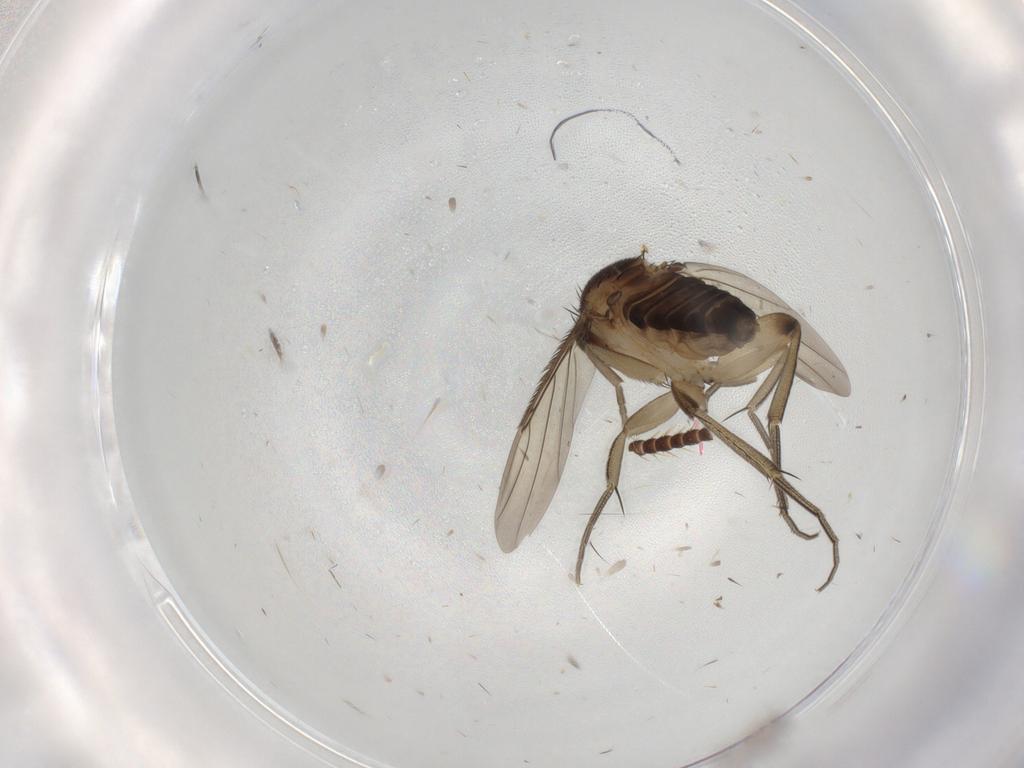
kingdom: Animalia
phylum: Arthropoda
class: Insecta
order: Diptera
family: Phoridae
